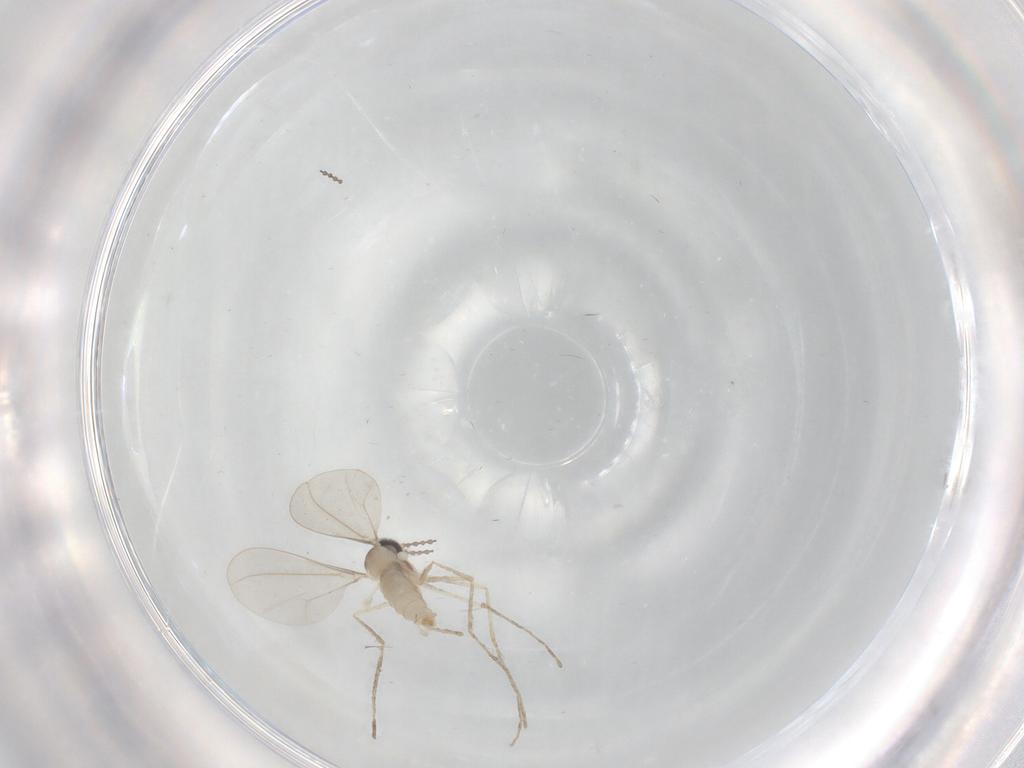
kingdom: Animalia
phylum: Arthropoda
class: Insecta
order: Diptera
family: Cecidomyiidae
